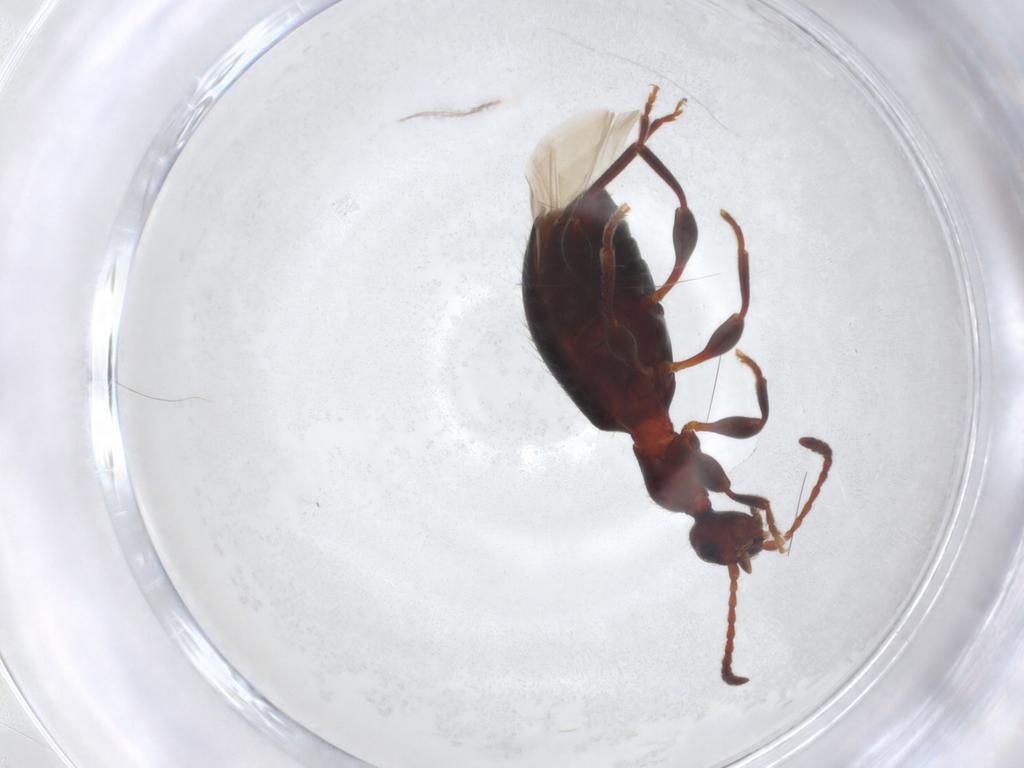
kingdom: Animalia
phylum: Arthropoda
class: Insecta
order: Coleoptera
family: Anthicidae
